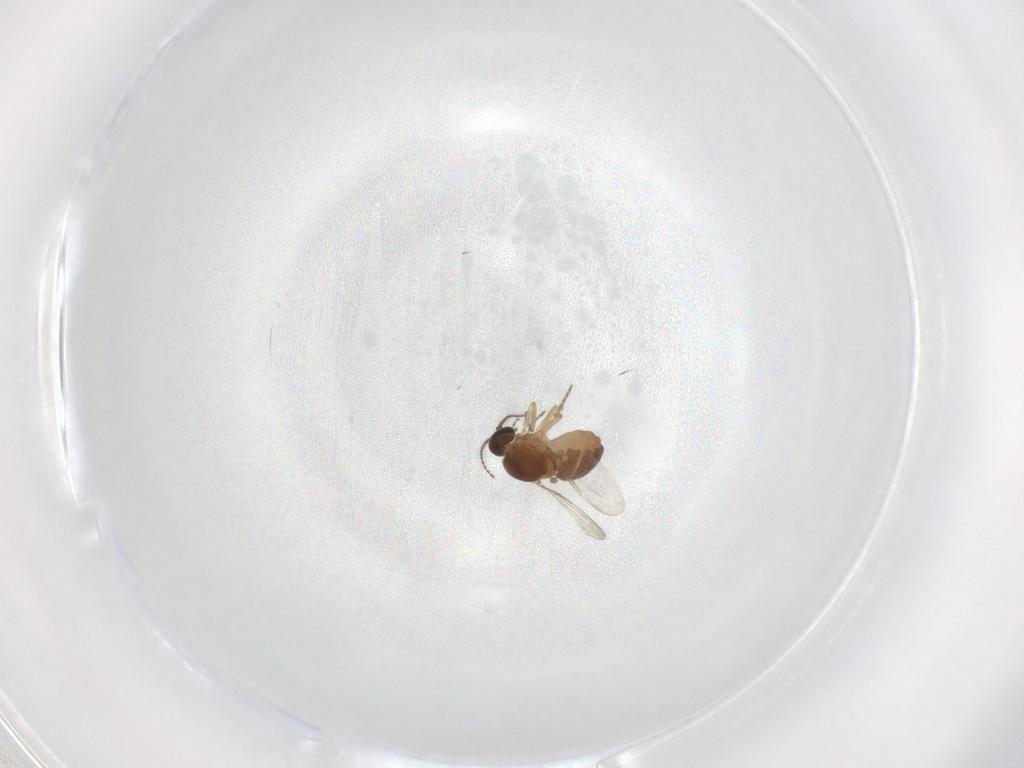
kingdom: Animalia
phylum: Arthropoda
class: Insecta
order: Diptera
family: Ceratopogonidae
